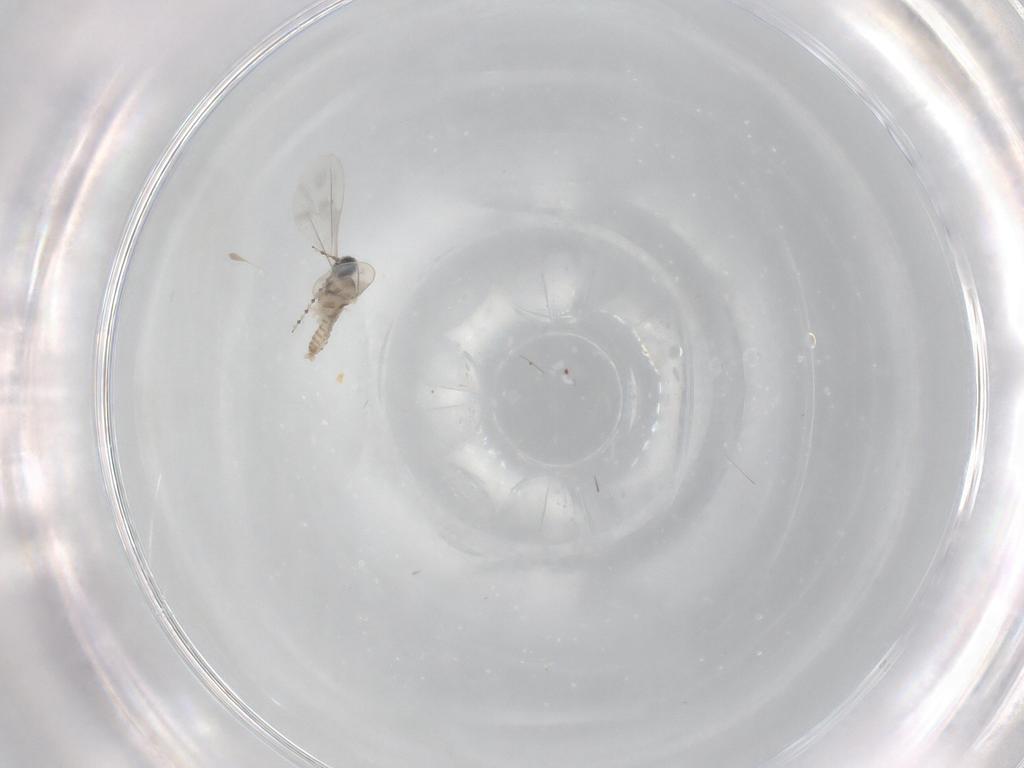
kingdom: Animalia
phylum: Arthropoda
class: Insecta
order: Diptera
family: Cecidomyiidae
